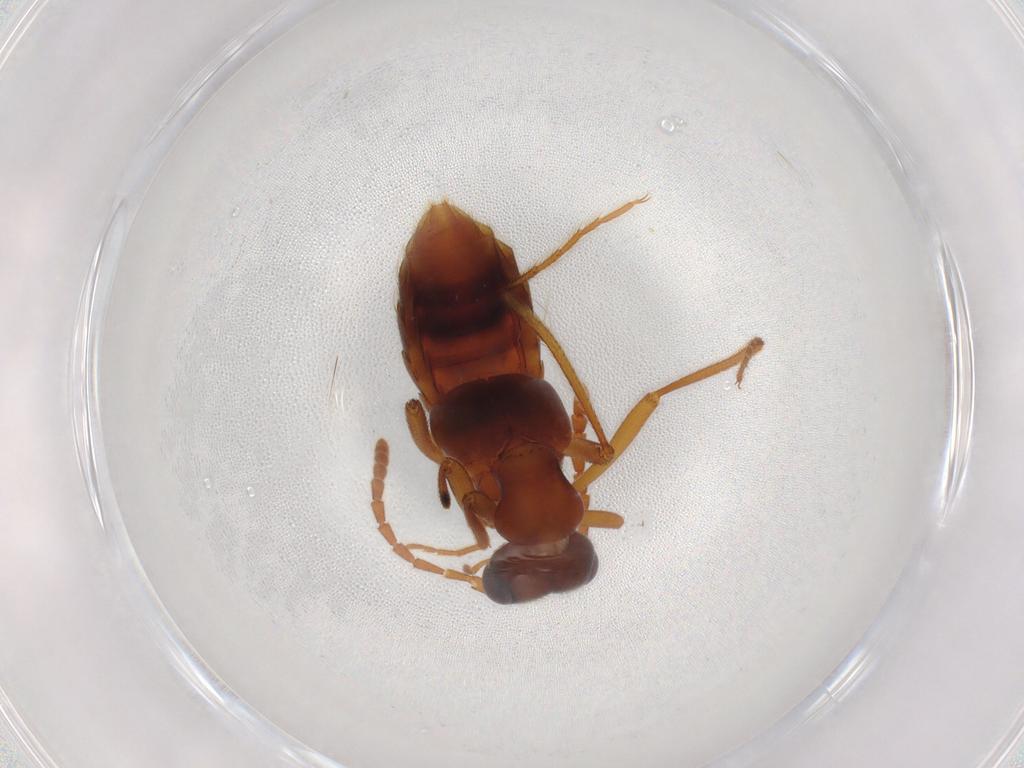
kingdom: Animalia
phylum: Arthropoda
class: Insecta
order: Coleoptera
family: Staphylinidae
